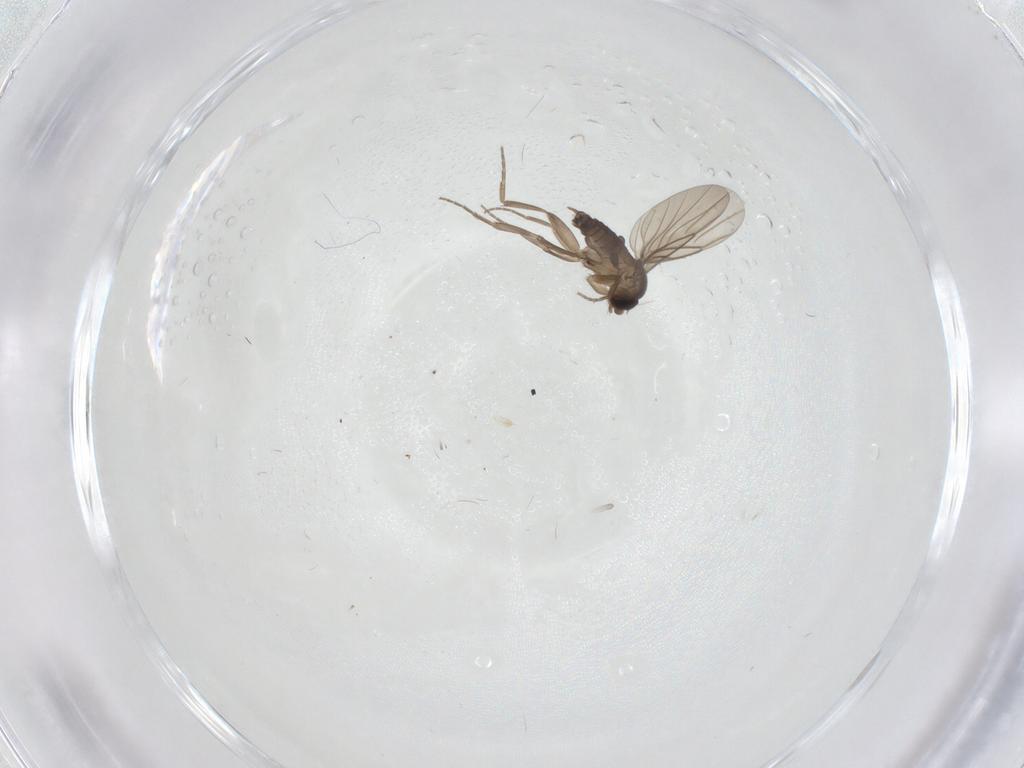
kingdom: Animalia
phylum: Arthropoda
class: Insecta
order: Diptera
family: Phoridae
